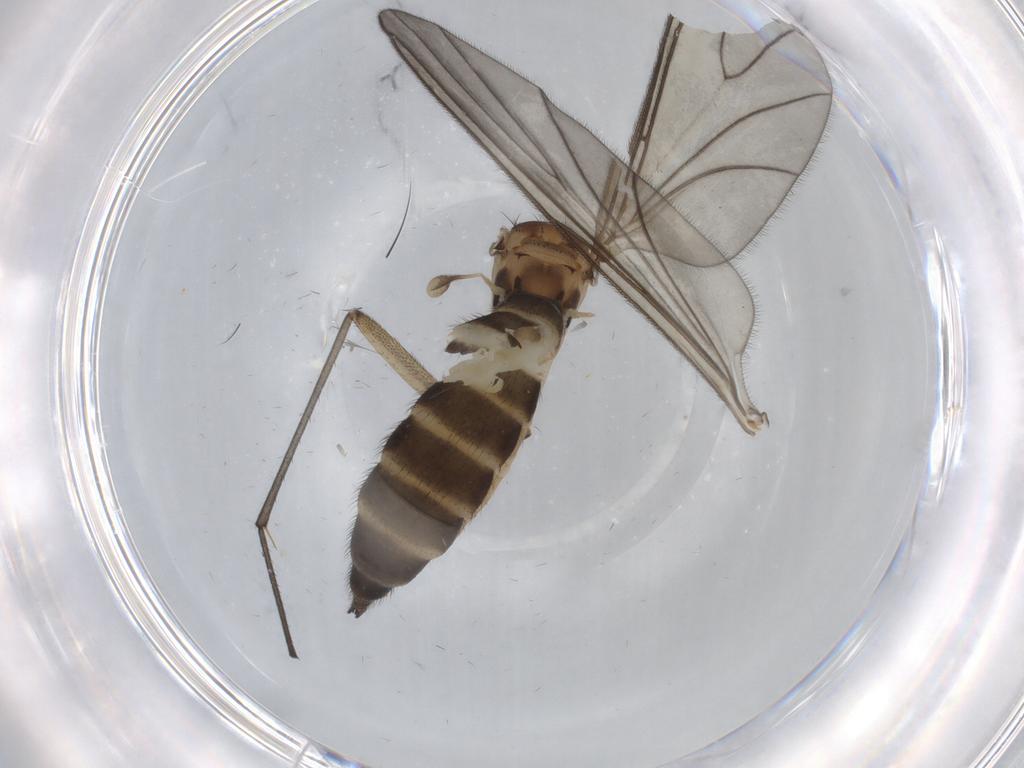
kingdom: Animalia
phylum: Arthropoda
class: Insecta
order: Diptera
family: Sciaridae
